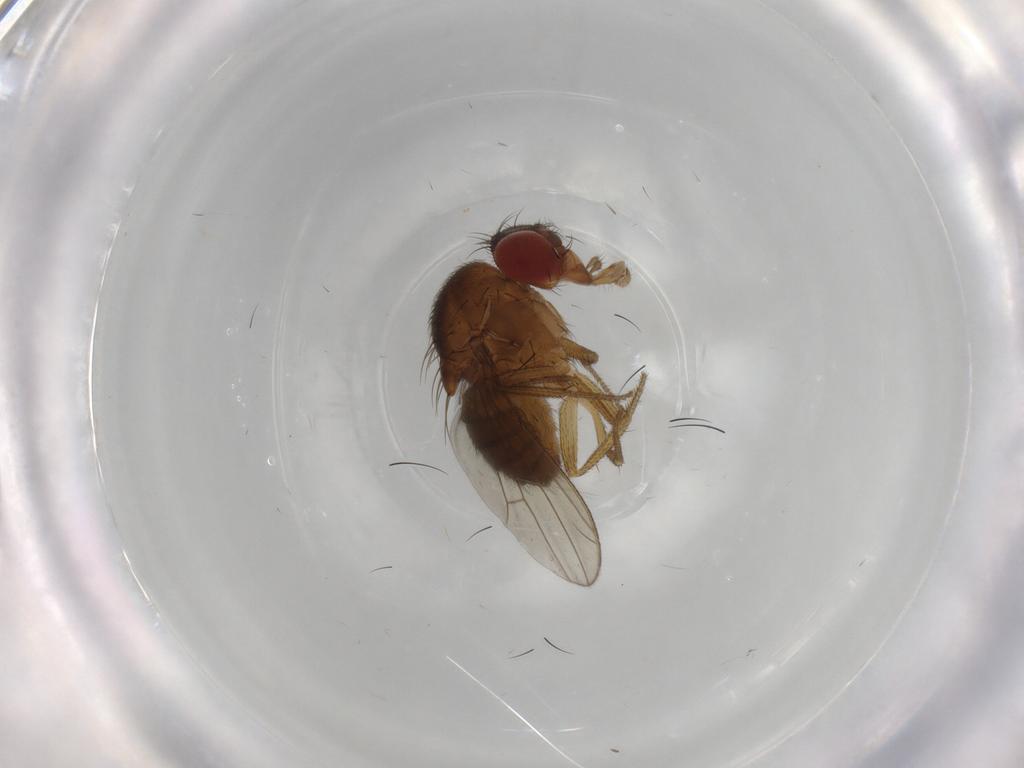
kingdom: Animalia
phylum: Arthropoda
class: Insecta
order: Diptera
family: Drosophilidae
